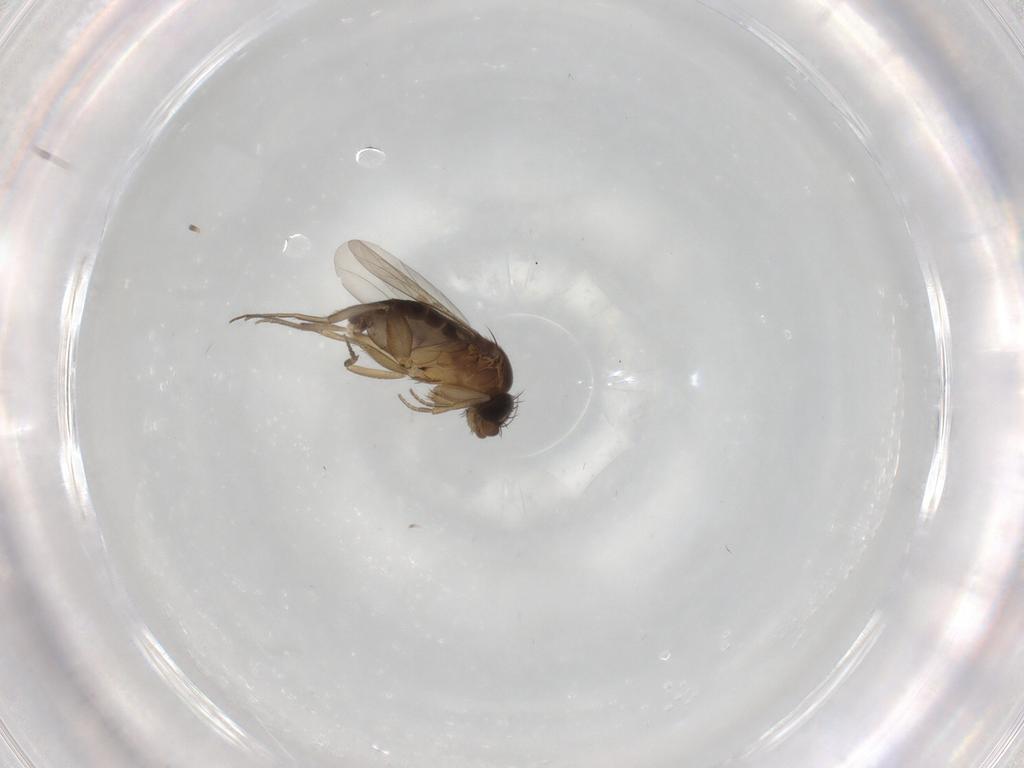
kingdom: Animalia
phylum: Arthropoda
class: Insecta
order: Diptera
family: Phoridae
